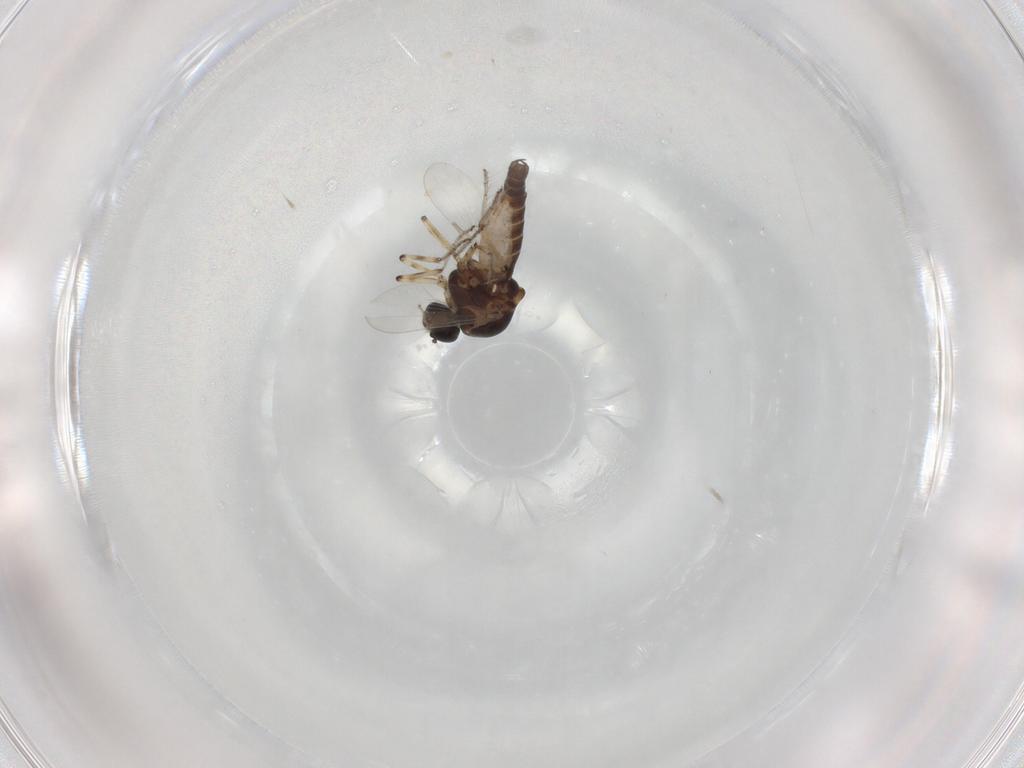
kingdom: Animalia
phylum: Arthropoda
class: Insecta
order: Diptera
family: Ceratopogonidae
